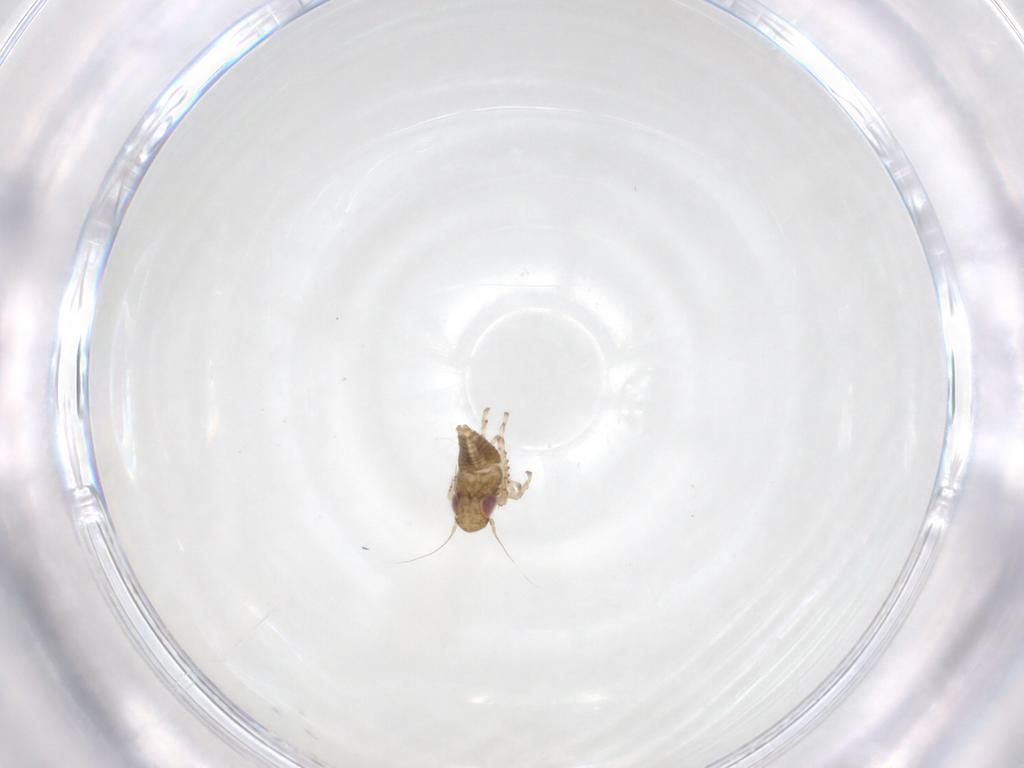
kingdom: Animalia
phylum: Arthropoda
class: Insecta
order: Hemiptera
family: Cicadellidae
